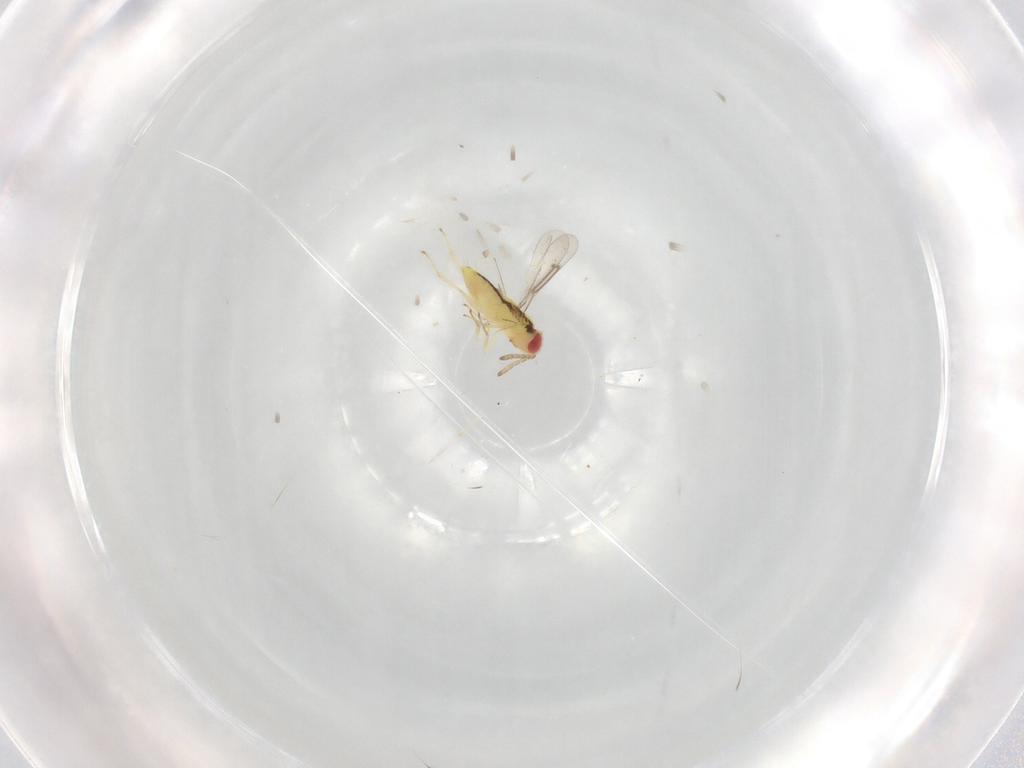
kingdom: Animalia
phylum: Arthropoda
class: Insecta
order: Hymenoptera
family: Aphelinidae
